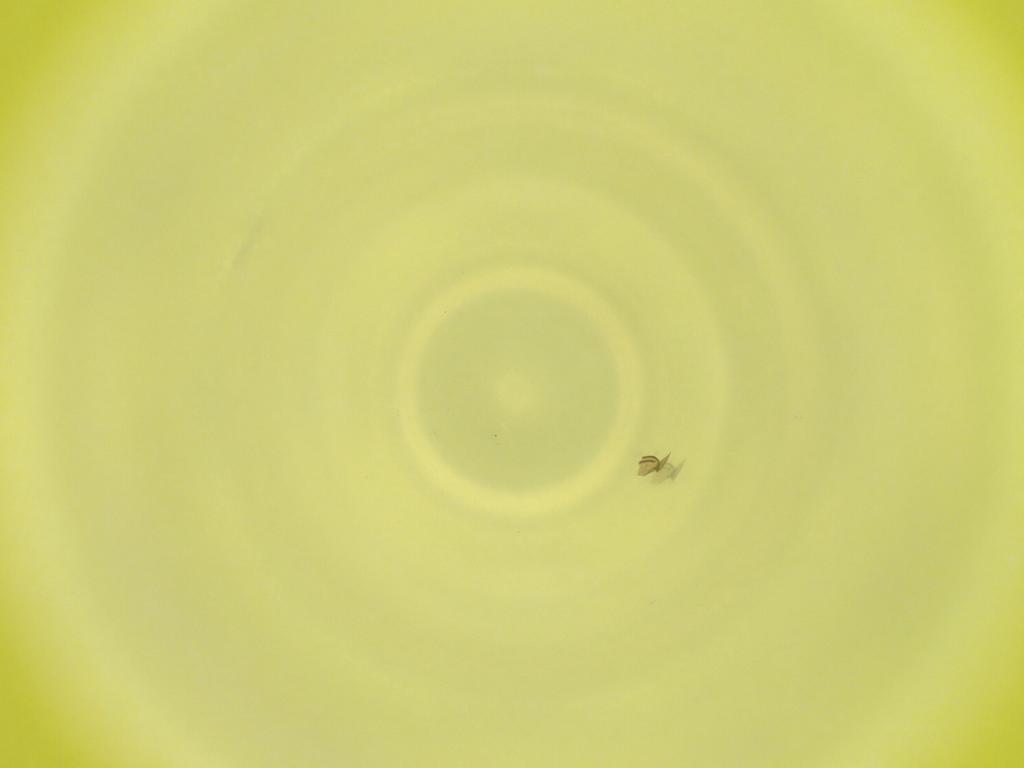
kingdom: Animalia
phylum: Arthropoda
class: Insecta
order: Diptera
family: Cecidomyiidae
